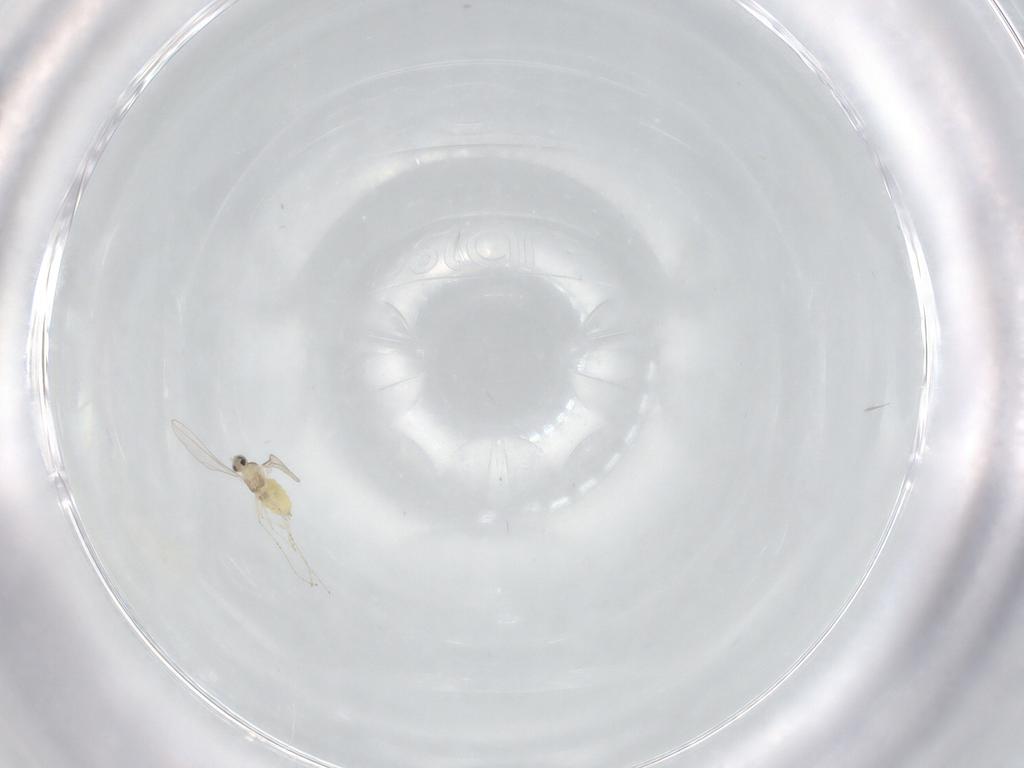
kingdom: Animalia
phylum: Arthropoda
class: Insecta
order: Diptera
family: Cecidomyiidae
